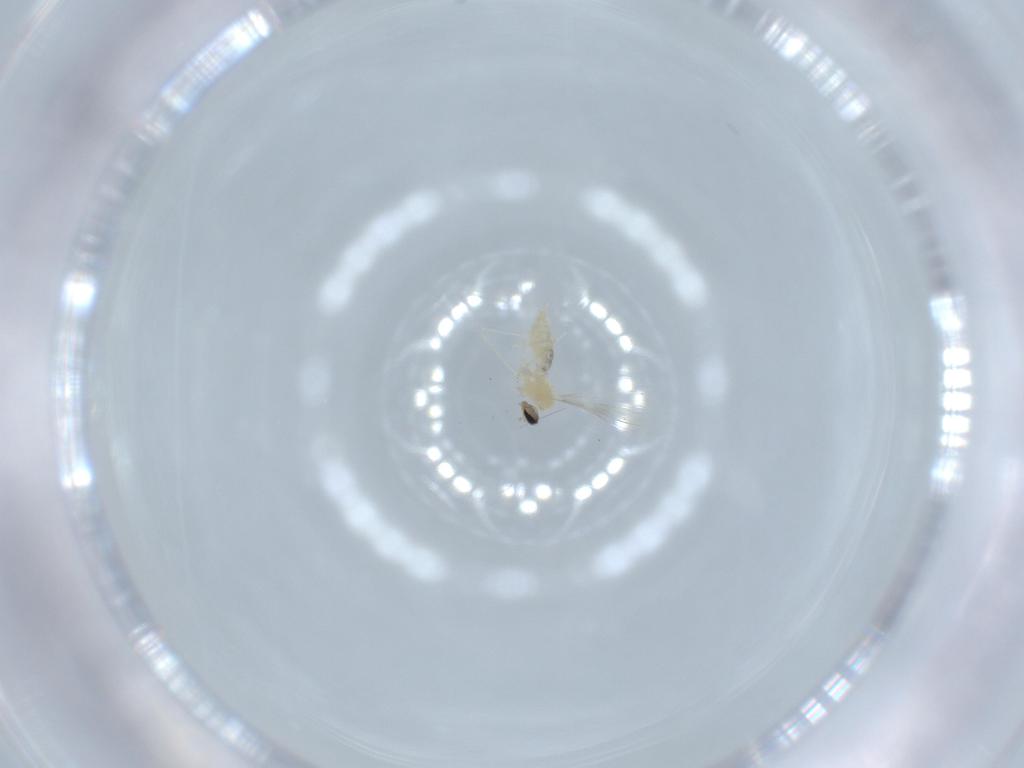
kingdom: Animalia
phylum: Arthropoda
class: Insecta
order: Diptera
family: Cecidomyiidae
